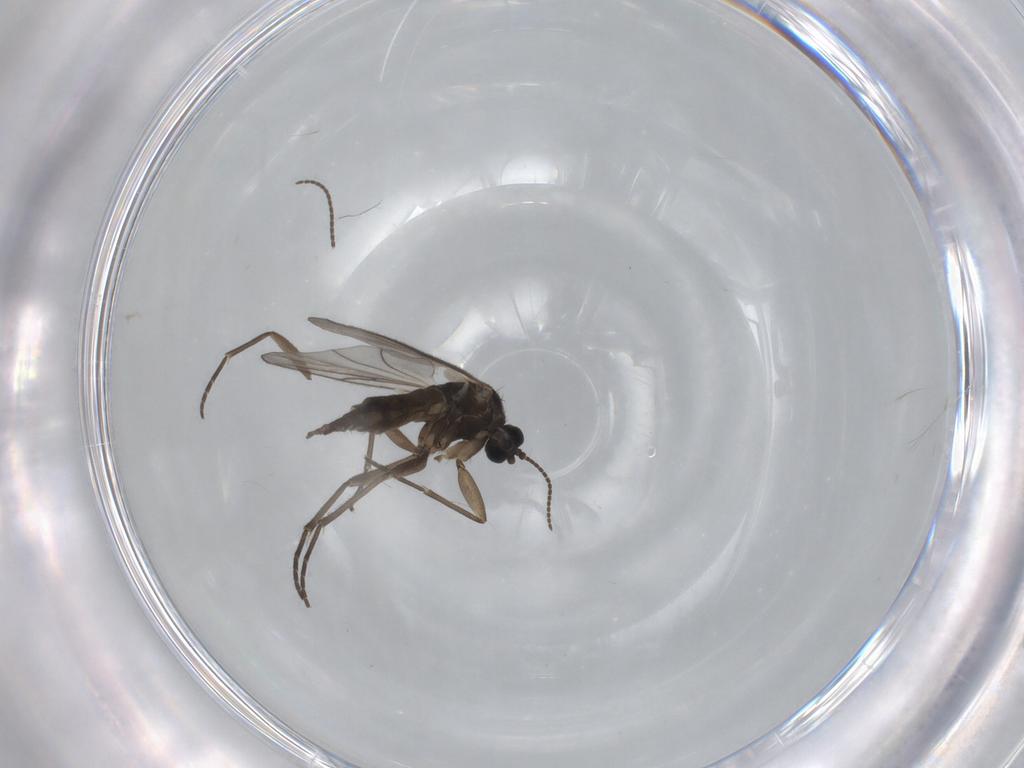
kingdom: Animalia
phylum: Arthropoda
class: Insecta
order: Diptera
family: Sciaridae
